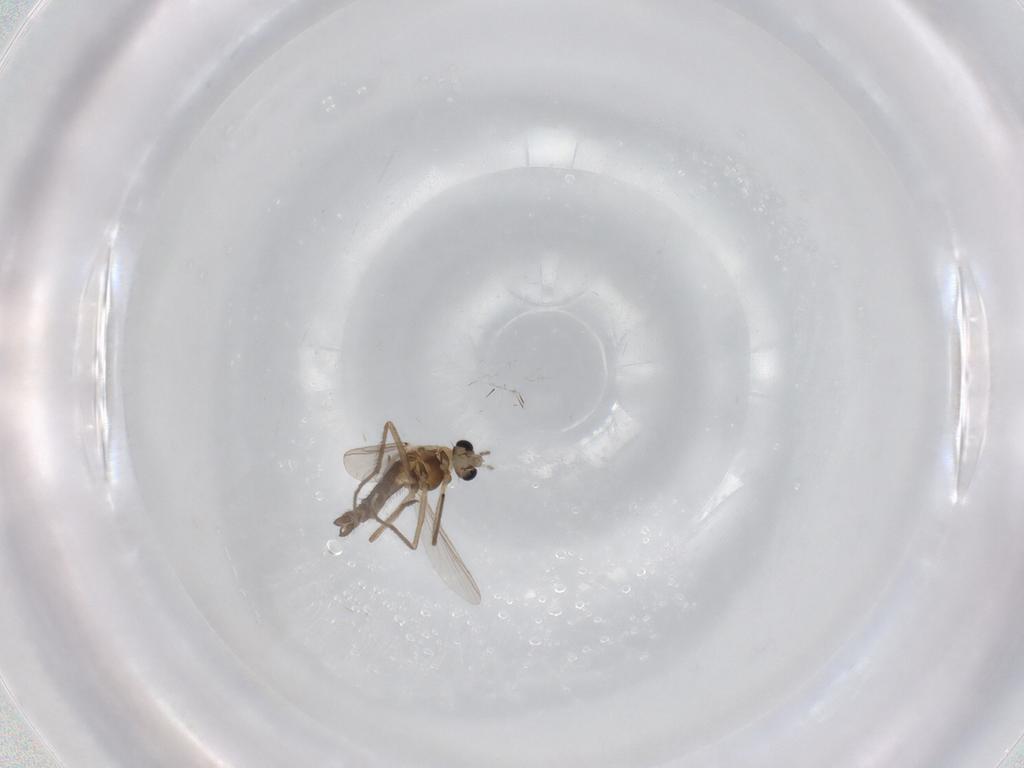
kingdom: Animalia
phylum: Arthropoda
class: Insecta
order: Diptera
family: Chironomidae
